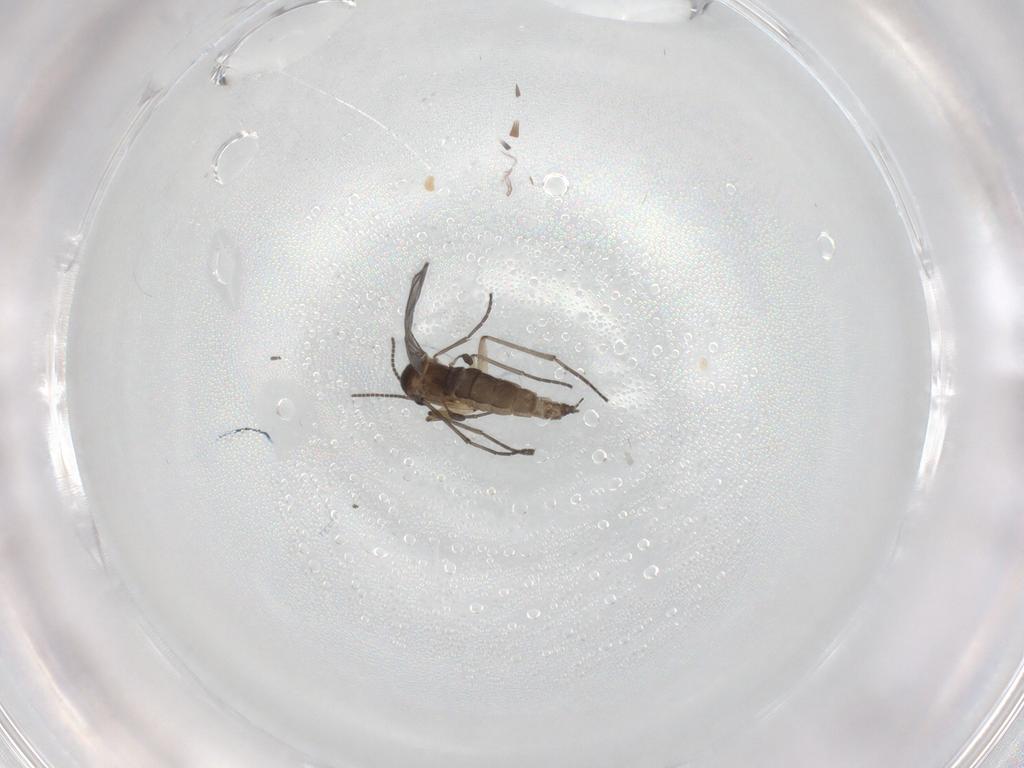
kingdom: Animalia
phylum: Arthropoda
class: Insecta
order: Diptera
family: Sciaridae
